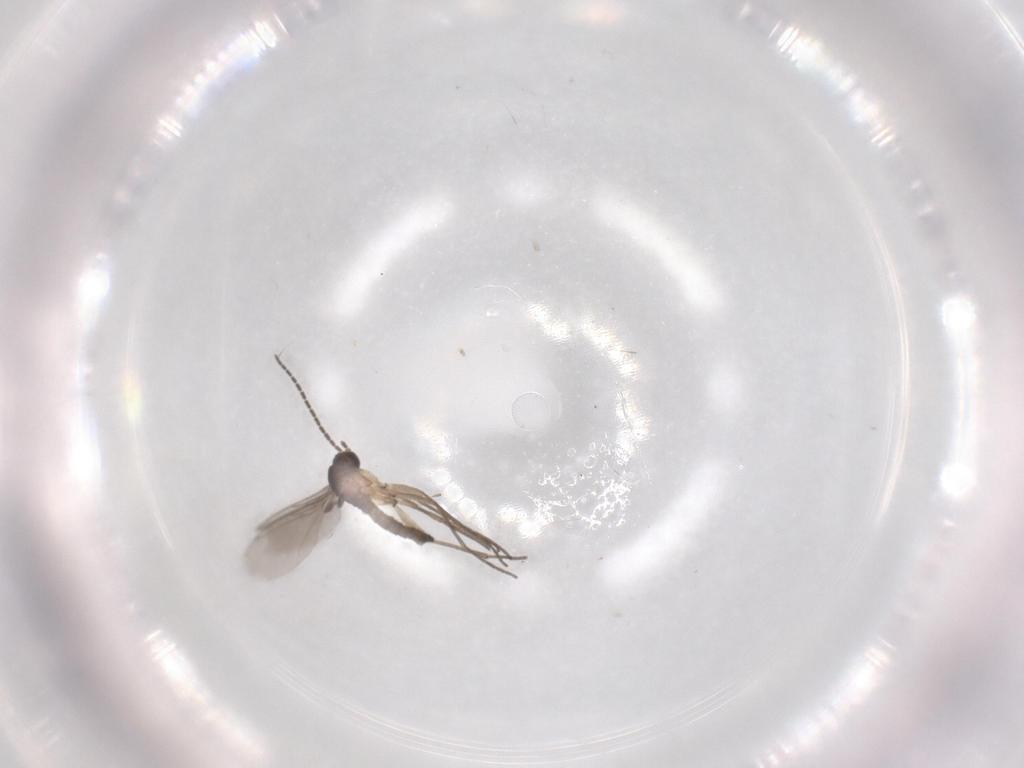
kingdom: Animalia
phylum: Arthropoda
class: Insecta
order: Diptera
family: Sciaridae
